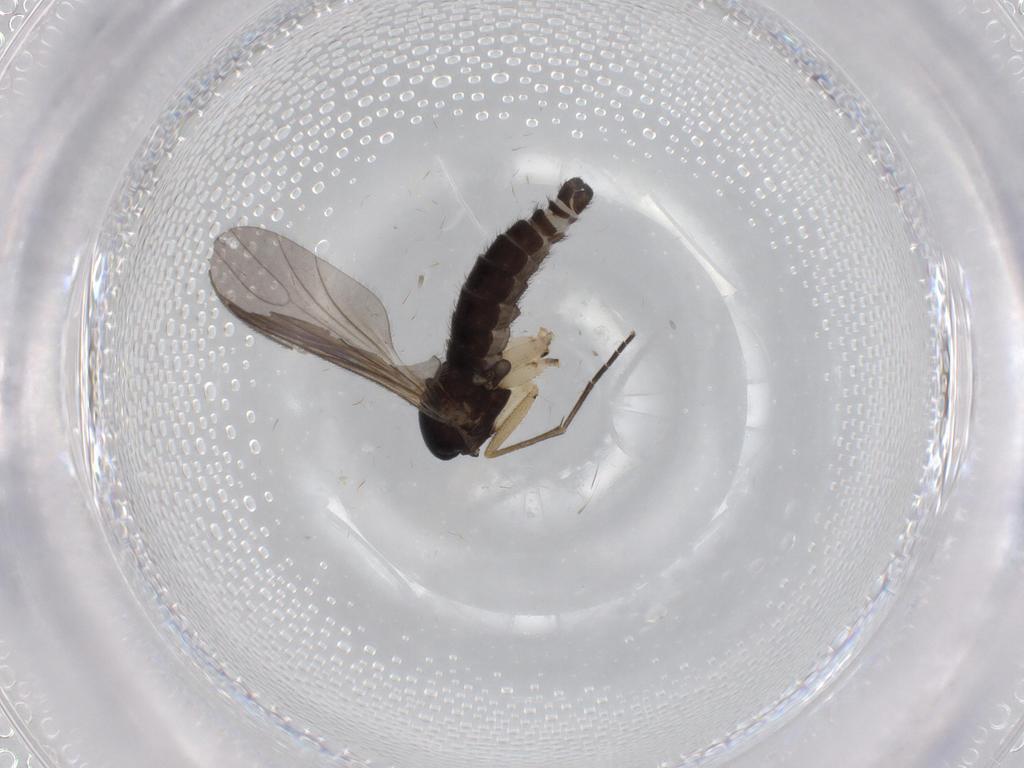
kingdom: Animalia
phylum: Arthropoda
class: Insecta
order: Diptera
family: Sciaridae
